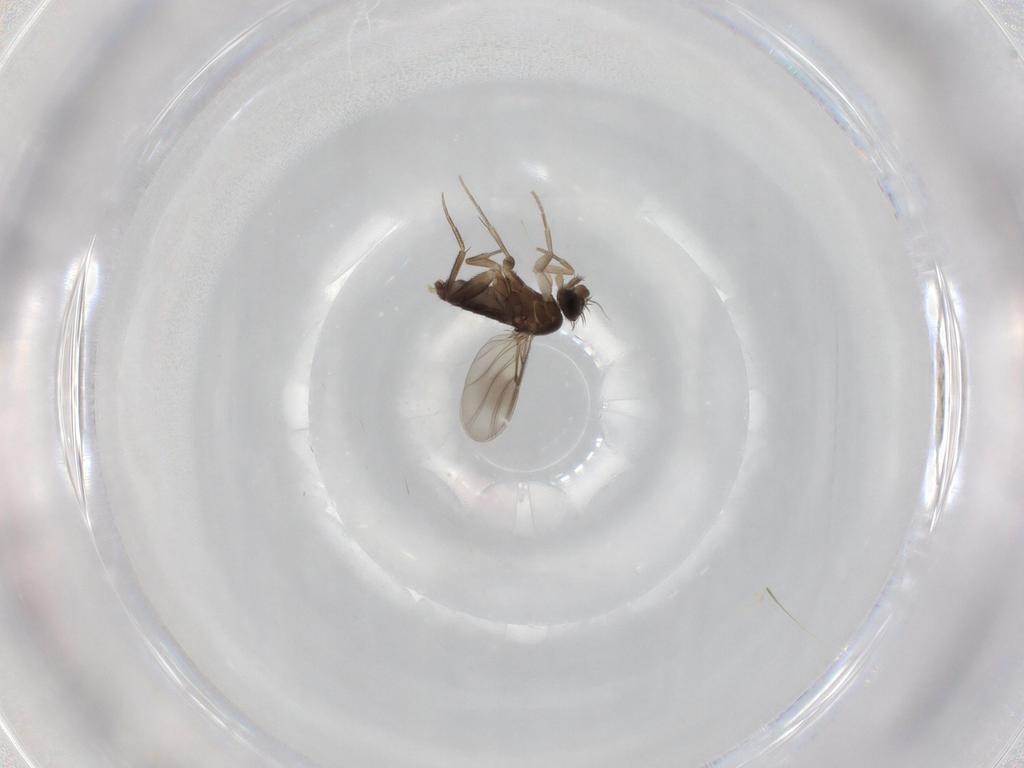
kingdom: Animalia
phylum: Arthropoda
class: Insecta
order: Diptera
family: Phoridae
